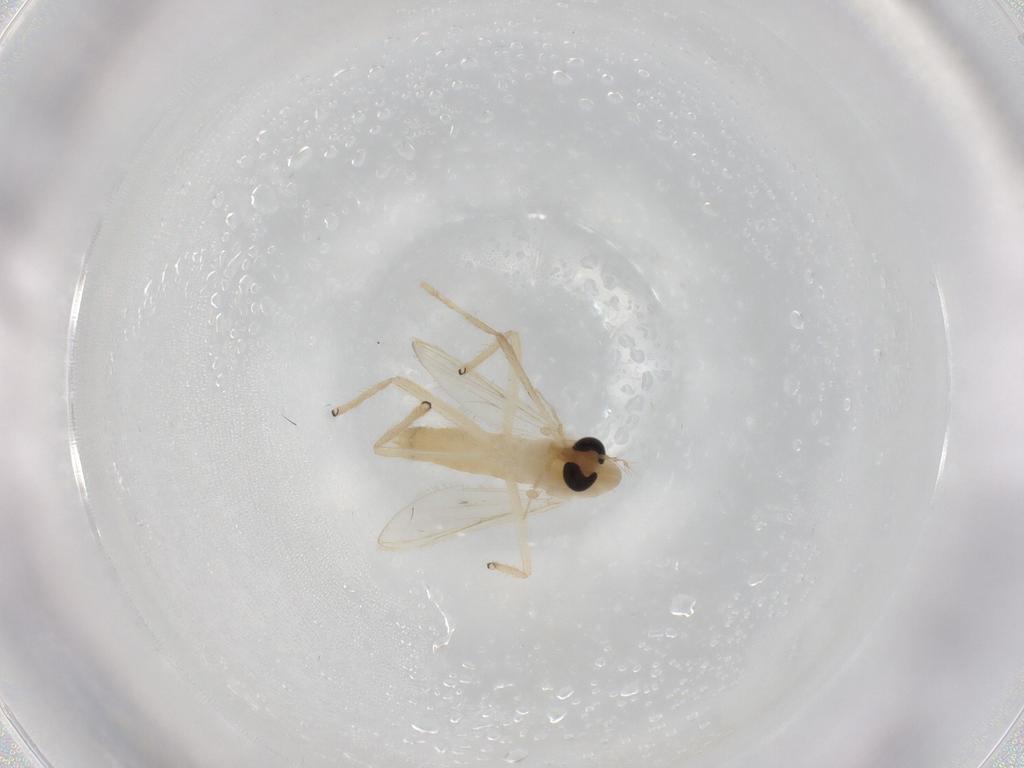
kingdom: Animalia
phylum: Arthropoda
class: Insecta
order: Diptera
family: Chironomidae
